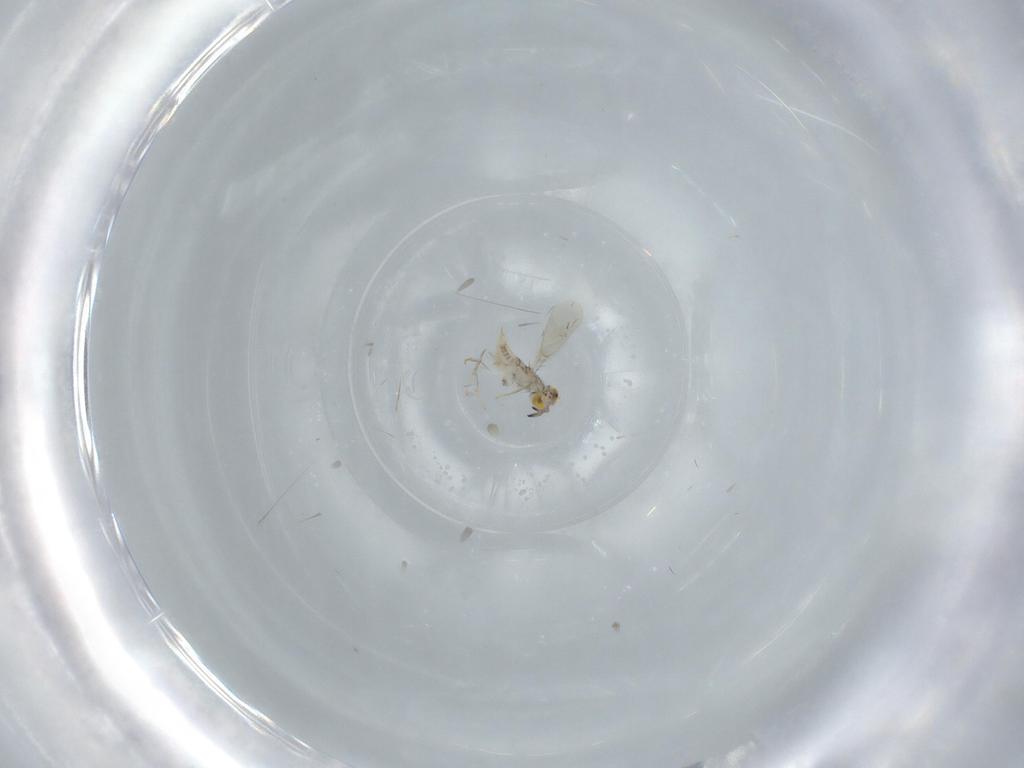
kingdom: Animalia
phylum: Arthropoda
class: Insecta
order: Hymenoptera
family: Aphelinidae
